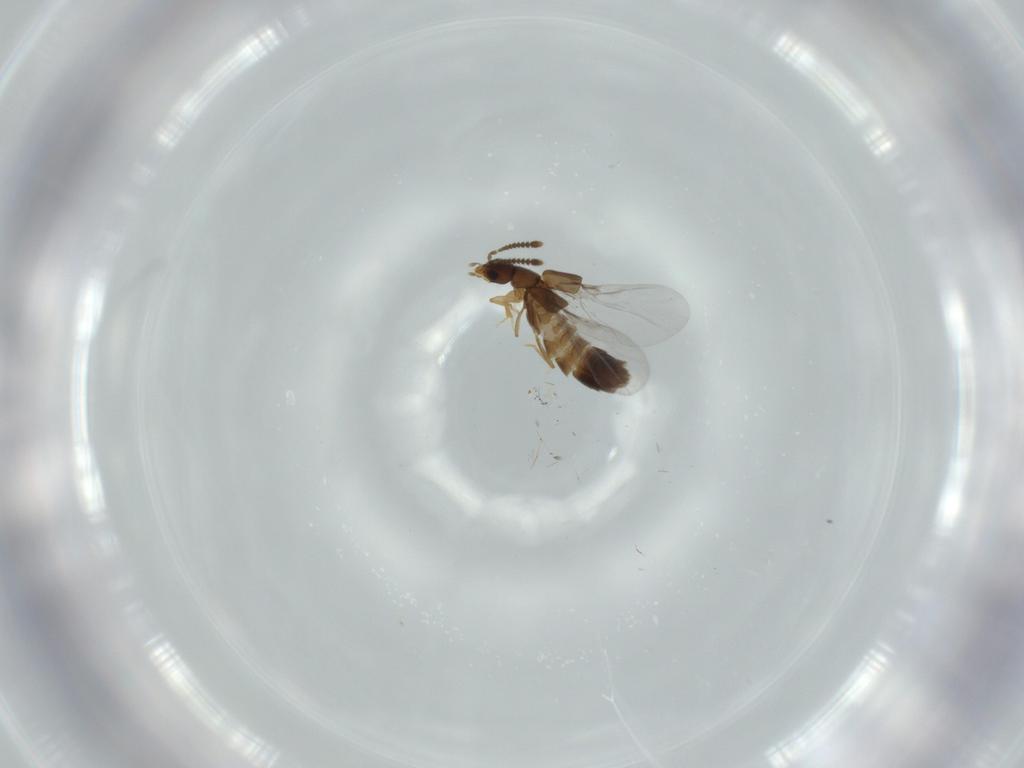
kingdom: Animalia
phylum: Arthropoda
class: Insecta
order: Coleoptera
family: Staphylinidae
